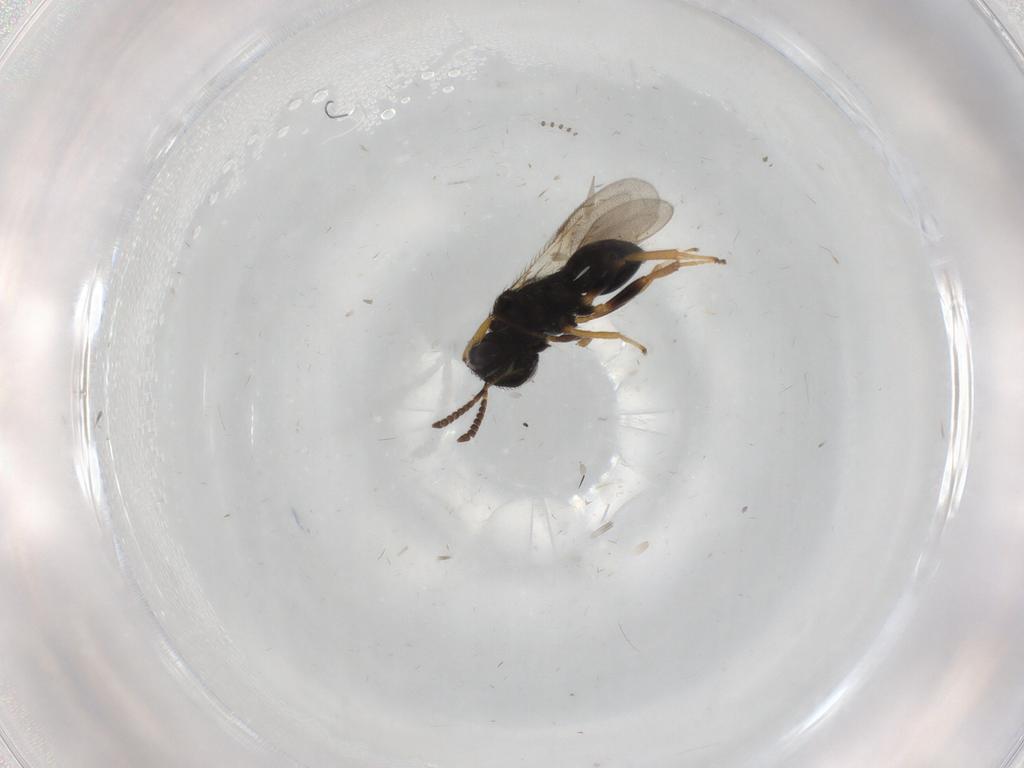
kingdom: Animalia
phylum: Arthropoda
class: Insecta
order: Hymenoptera
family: Pteromalidae
